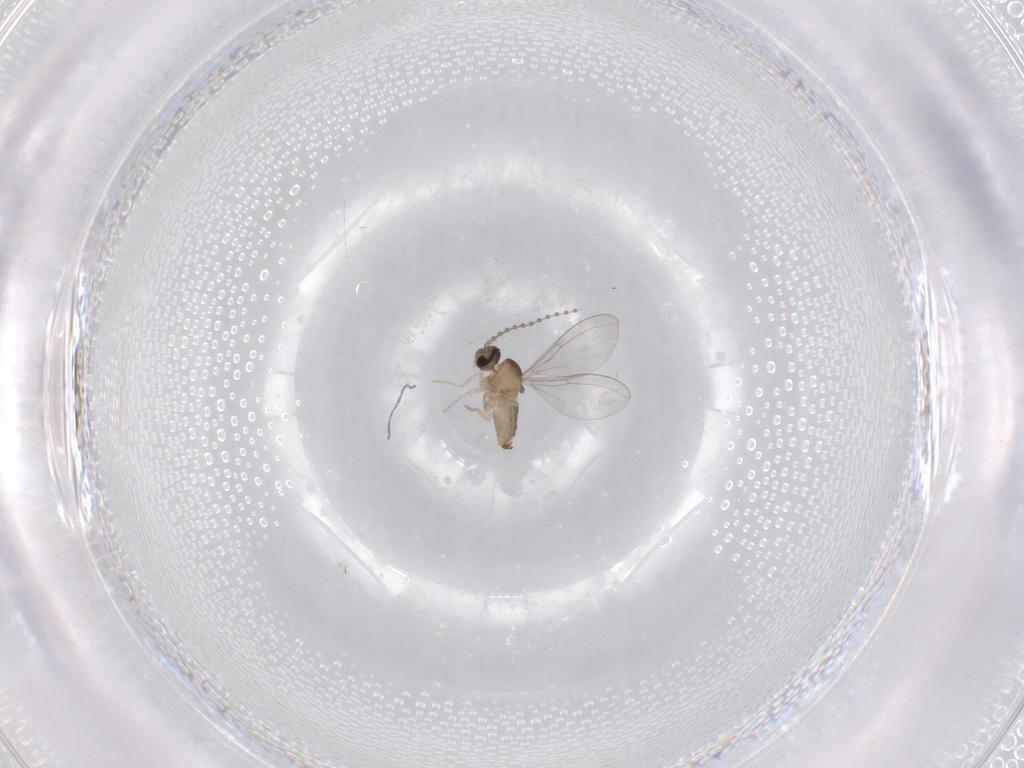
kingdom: Animalia
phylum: Arthropoda
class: Insecta
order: Diptera
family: Cecidomyiidae
